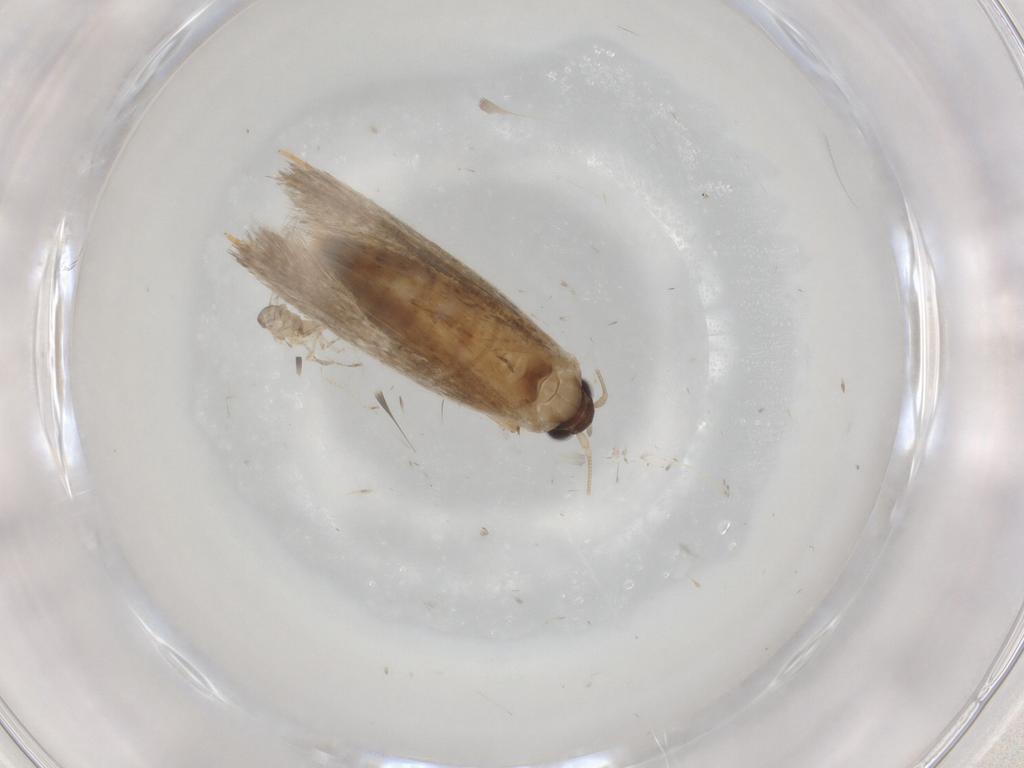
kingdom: Animalia
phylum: Arthropoda
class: Insecta
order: Lepidoptera
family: Tineidae
